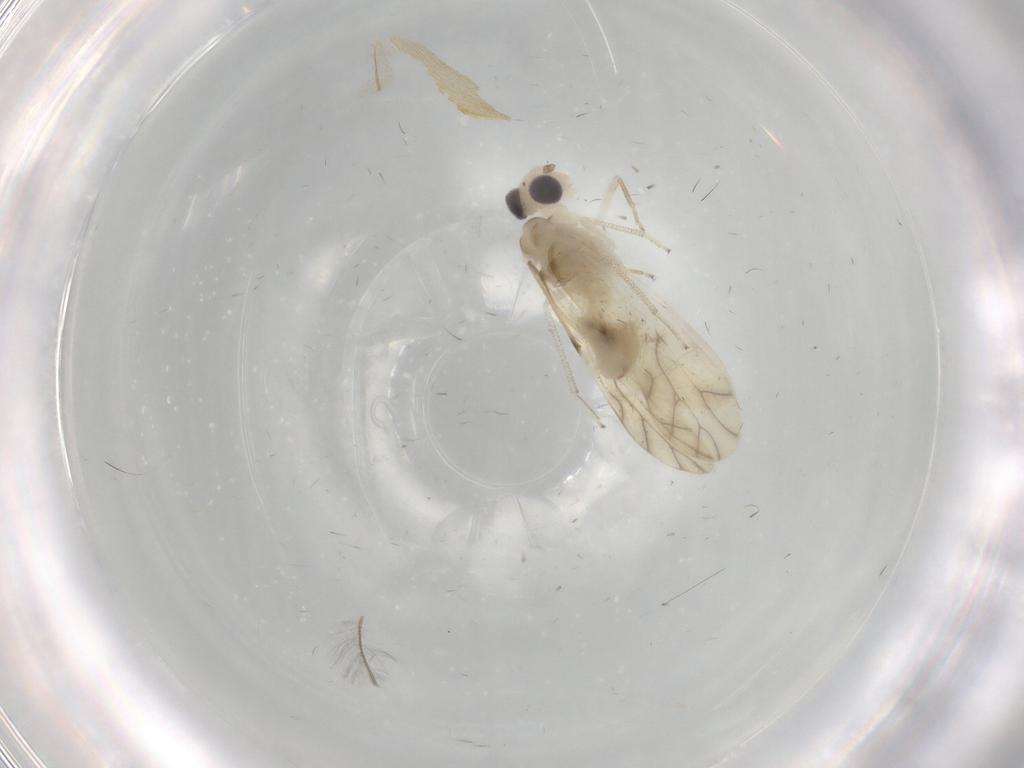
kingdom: Animalia
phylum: Arthropoda
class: Insecta
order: Psocodea
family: Caeciliusidae
